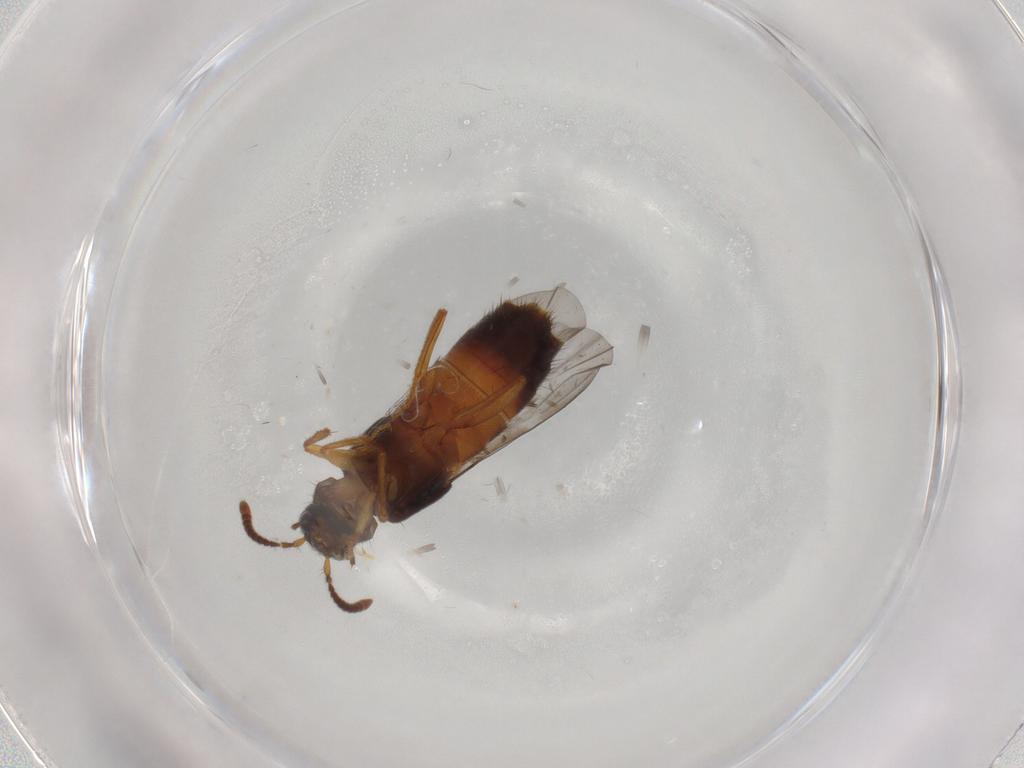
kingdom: Animalia
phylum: Arthropoda
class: Insecta
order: Coleoptera
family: Staphylinidae
